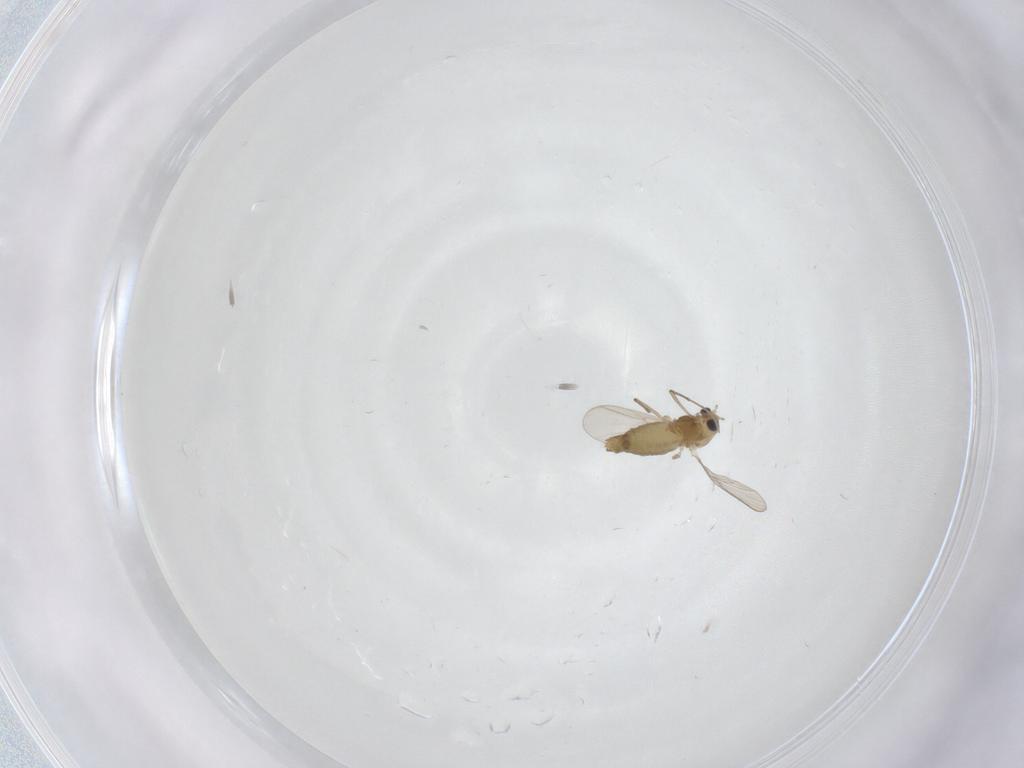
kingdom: Animalia
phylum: Arthropoda
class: Insecta
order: Diptera
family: Chironomidae
